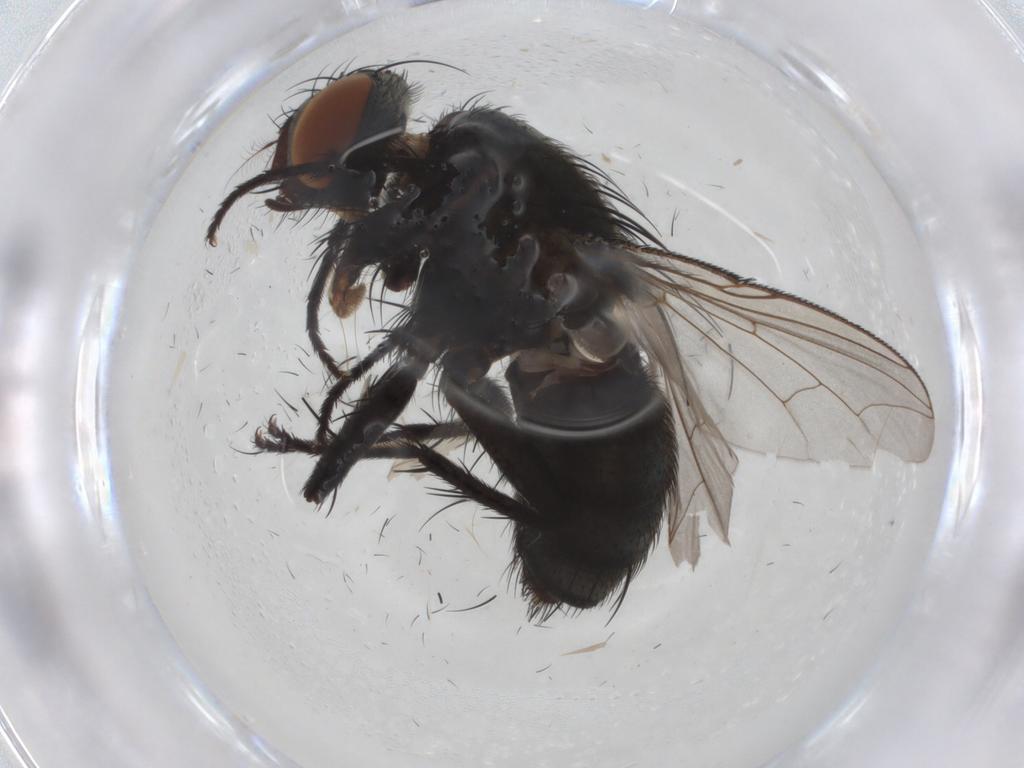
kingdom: Animalia
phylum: Arthropoda
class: Insecta
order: Diptera
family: Sarcophagidae
